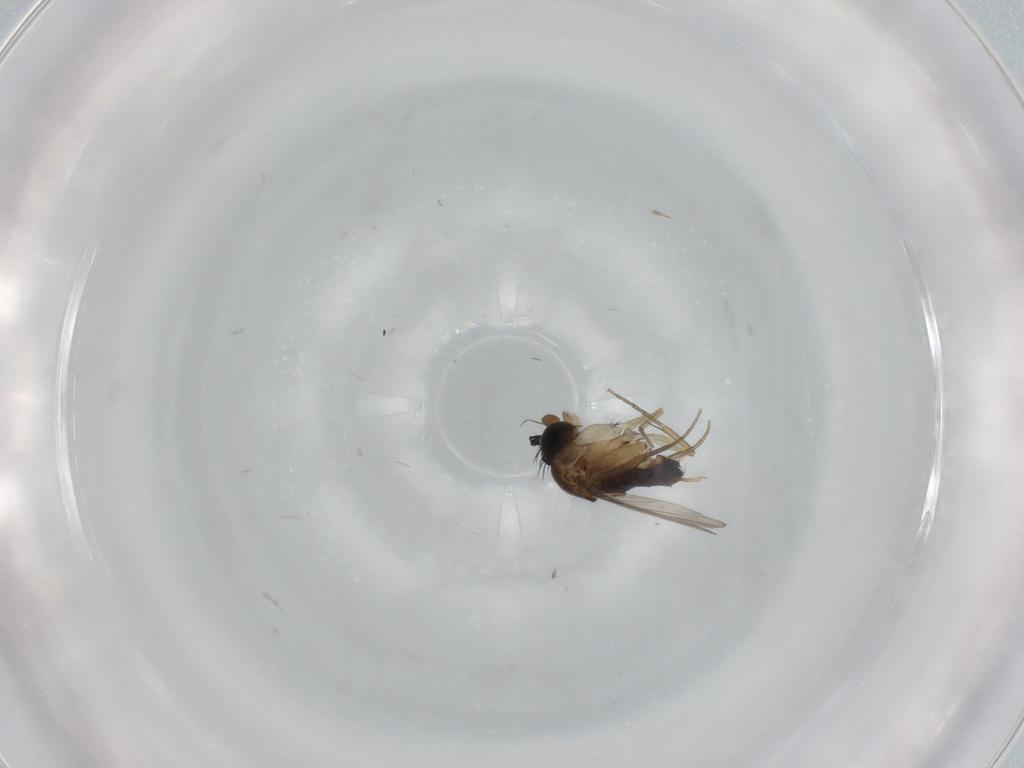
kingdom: Animalia
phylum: Arthropoda
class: Insecta
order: Diptera
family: Phoridae
